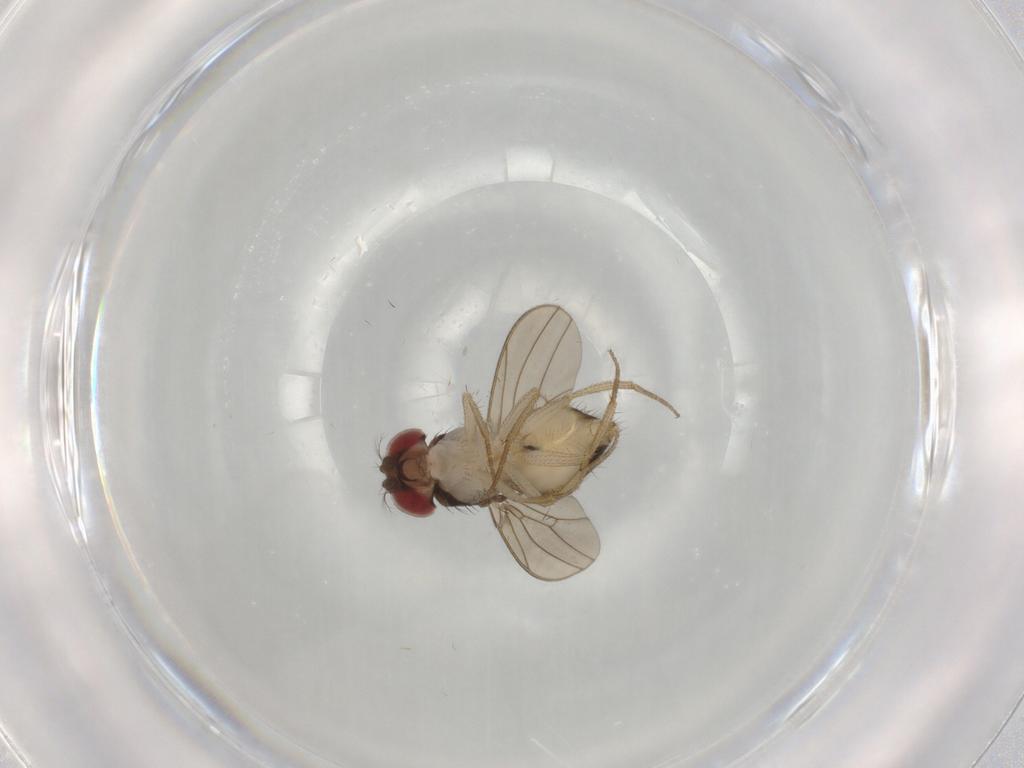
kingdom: Animalia
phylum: Arthropoda
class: Insecta
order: Diptera
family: Drosophilidae
